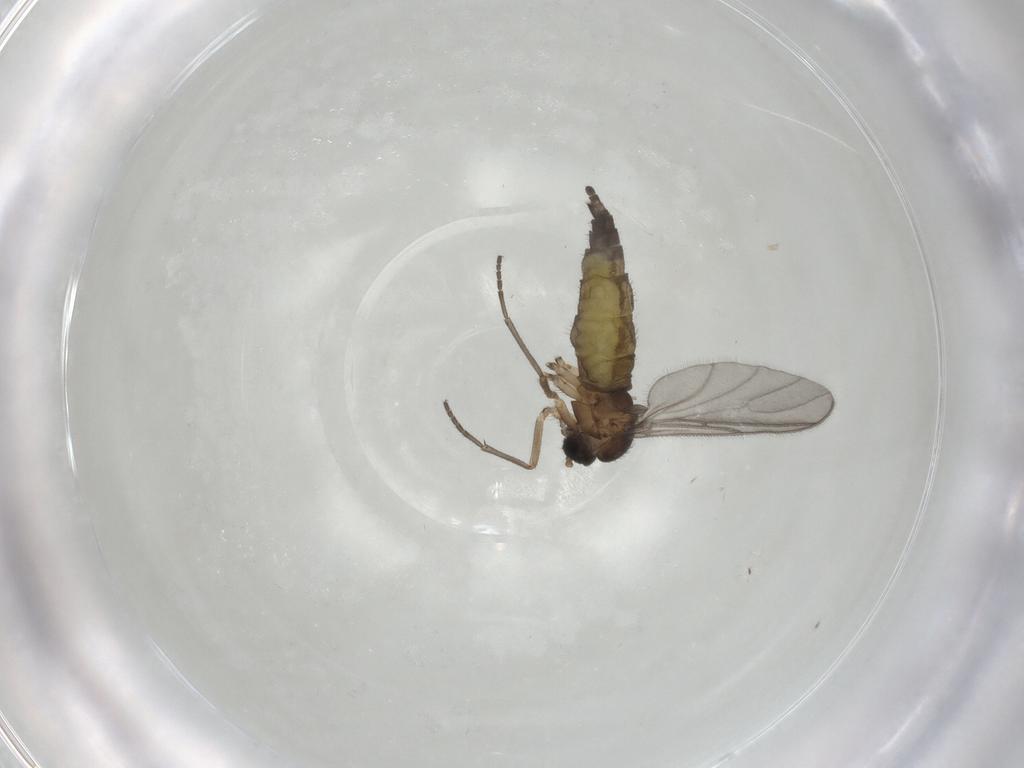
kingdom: Animalia
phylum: Arthropoda
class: Insecta
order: Diptera
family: Sciaridae
